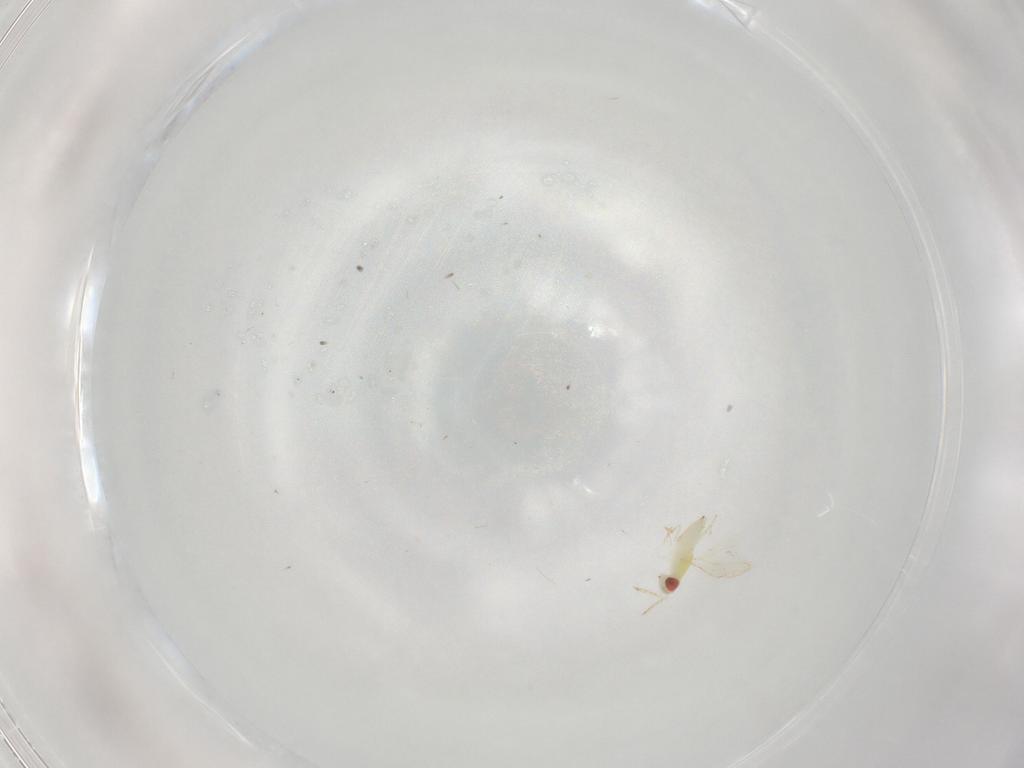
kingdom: Animalia
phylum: Arthropoda
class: Insecta
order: Hymenoptera
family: Eulophidae
